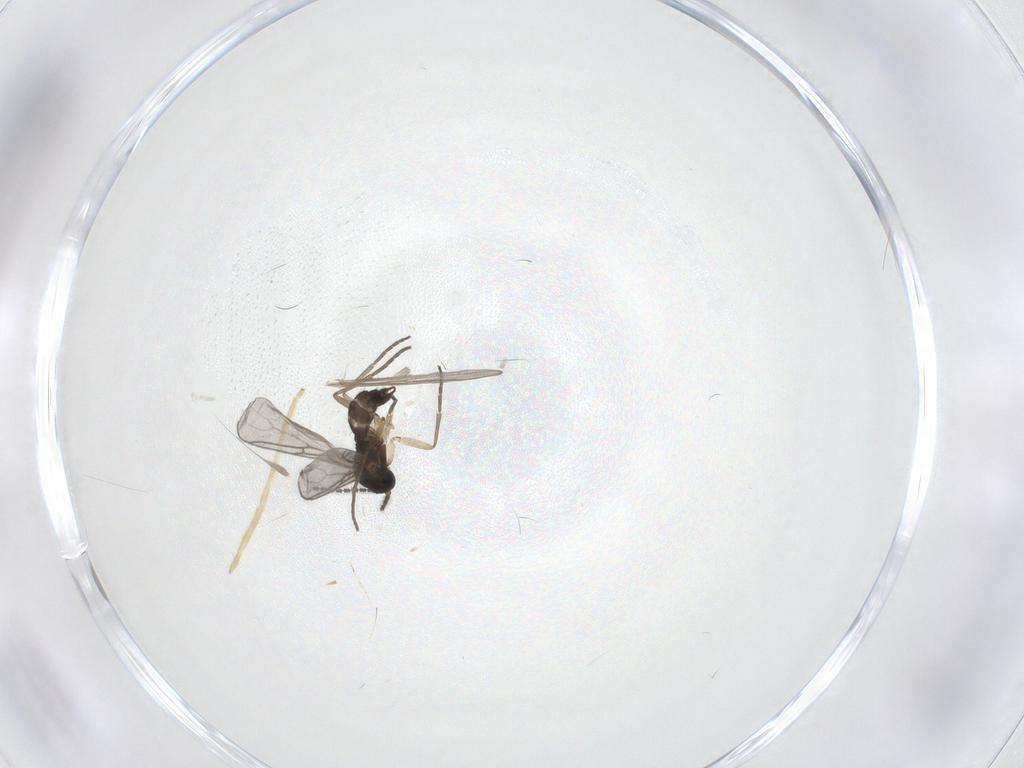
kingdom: Animalia
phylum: Arthropoda
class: Insecta
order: Diptera
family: Chironomidae
